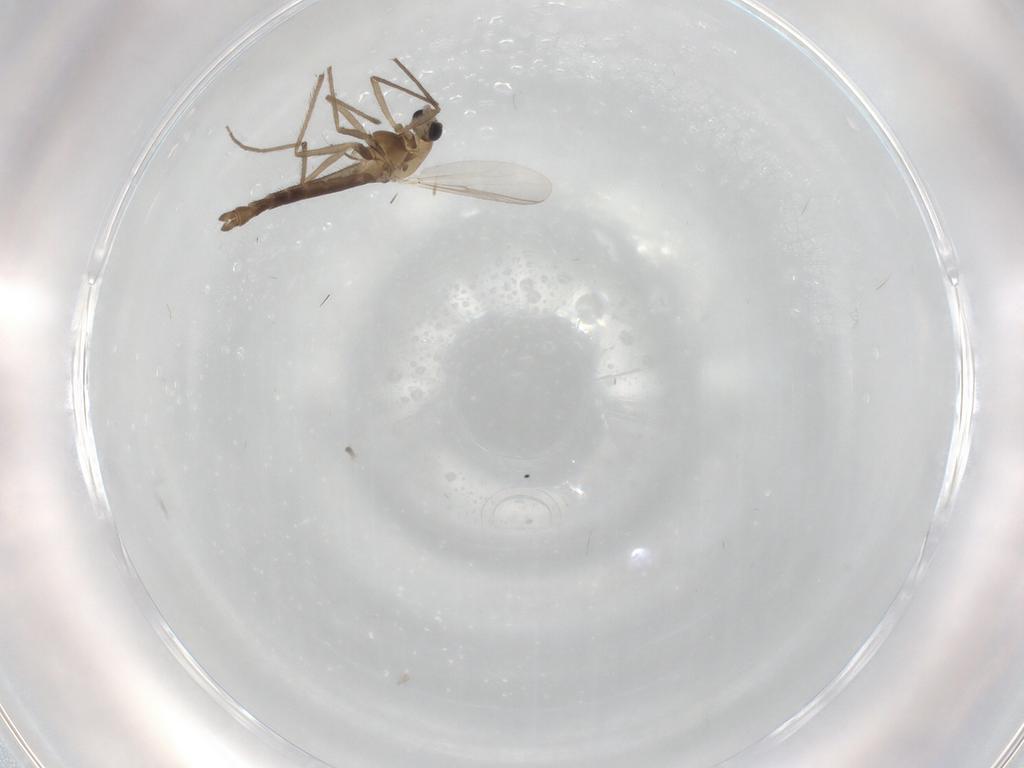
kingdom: Animalia
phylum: Arthropoda
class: Insecta
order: Diptera
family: Chironomidae
